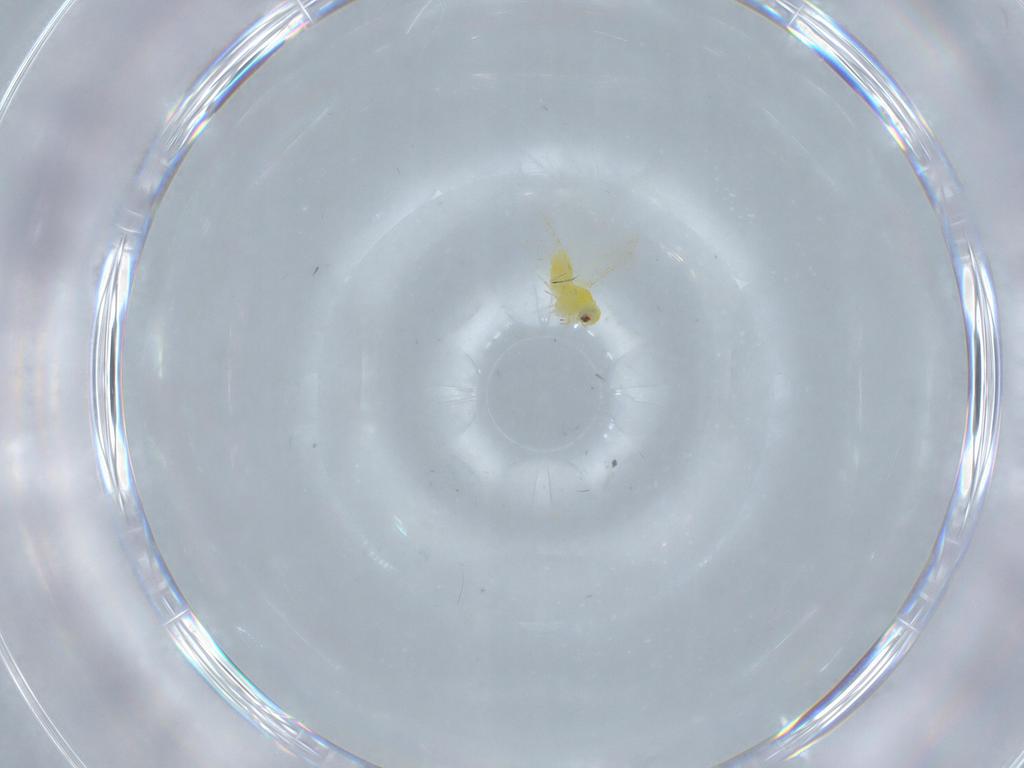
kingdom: Animalia
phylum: Arthropoda
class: Insecta
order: Hemiptera
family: Aleyrodidae
